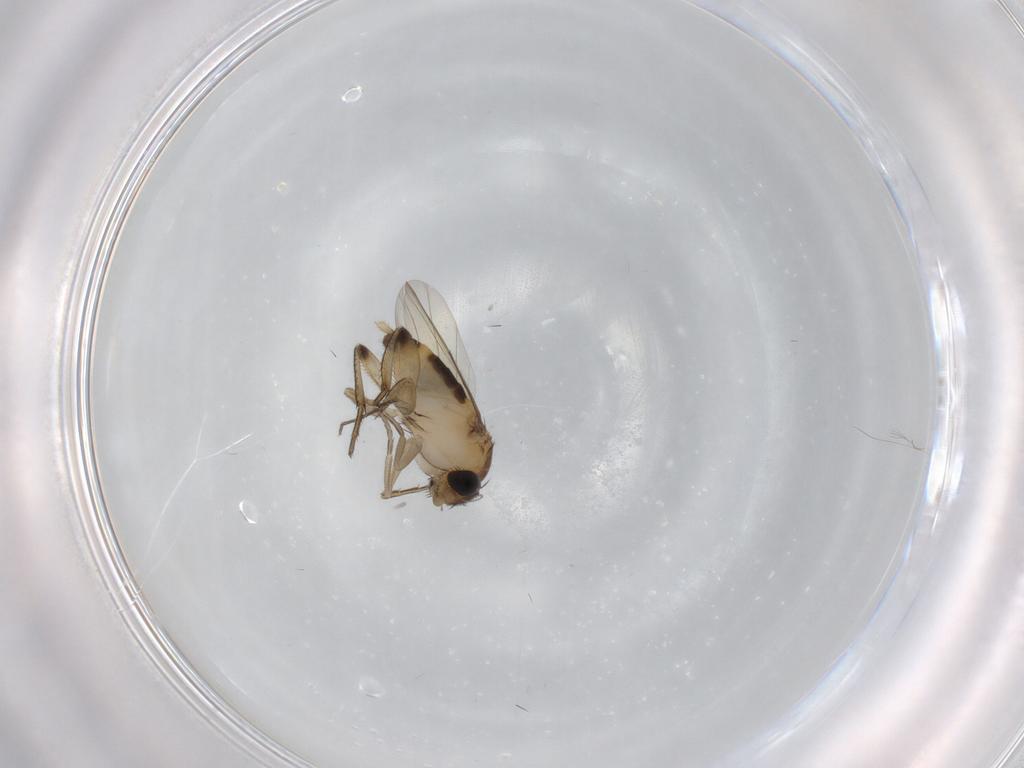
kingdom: Animalia
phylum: Arthropoda
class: Insecta
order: Diptera
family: Phoridae
